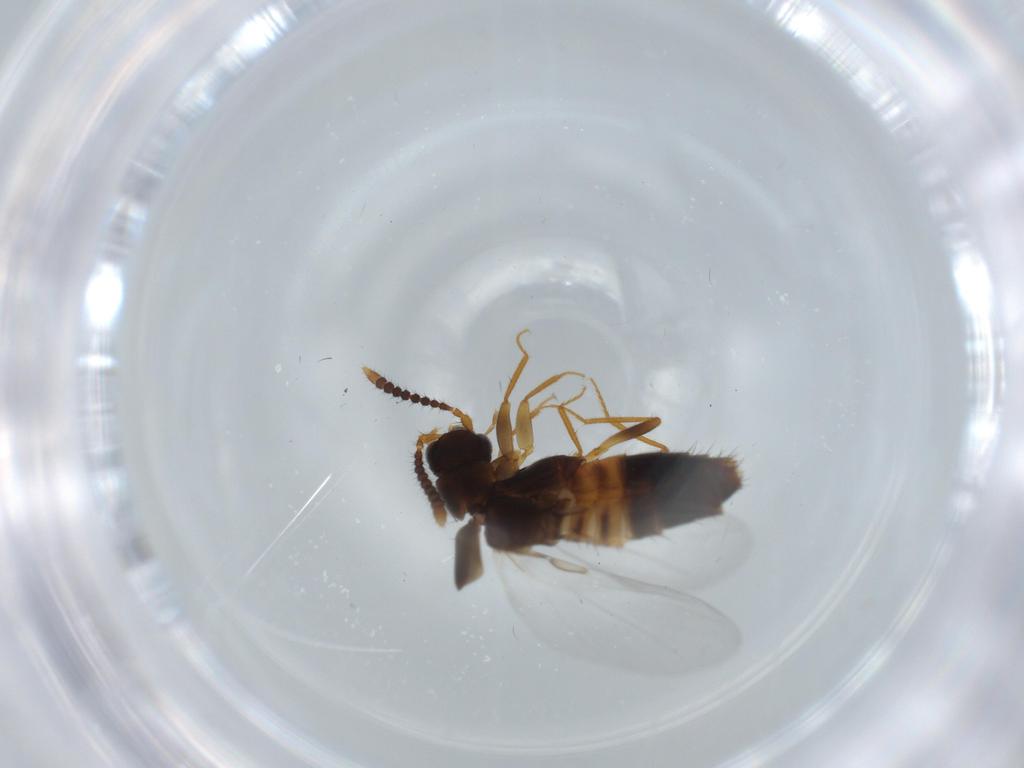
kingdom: Animalia
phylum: Arthropoda
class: Insecta
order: Coleoptera
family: Staphylinidae
